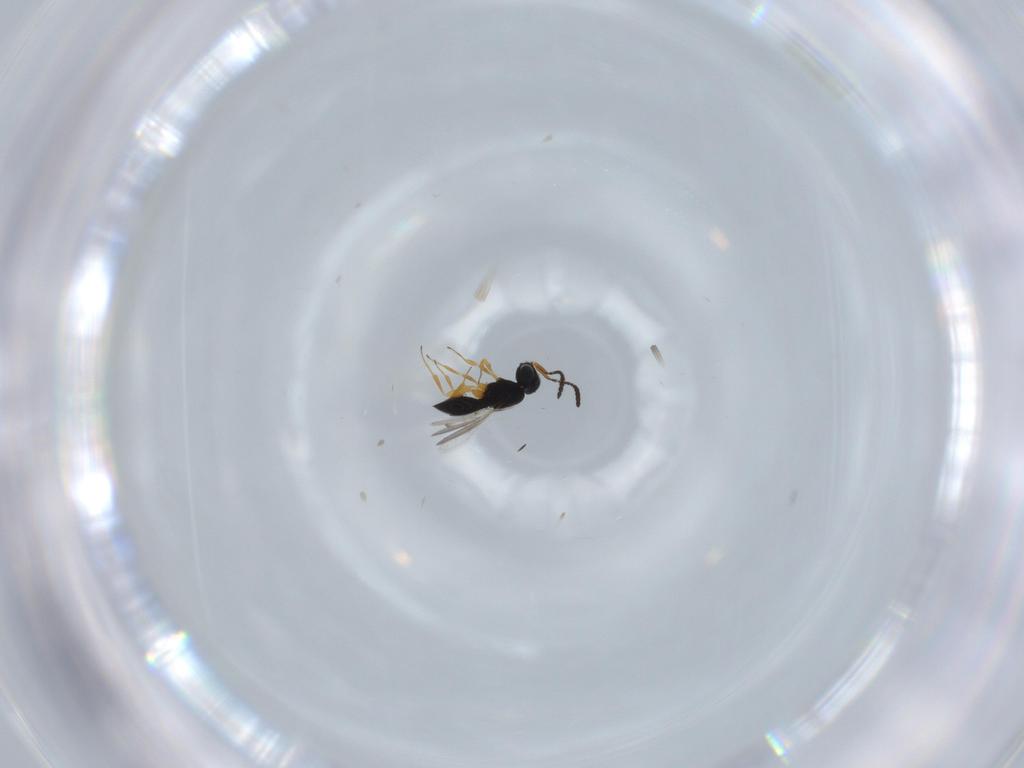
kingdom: Animalia
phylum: Arthropoda
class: Insecta
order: Hymenoptera
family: Scelionidae
